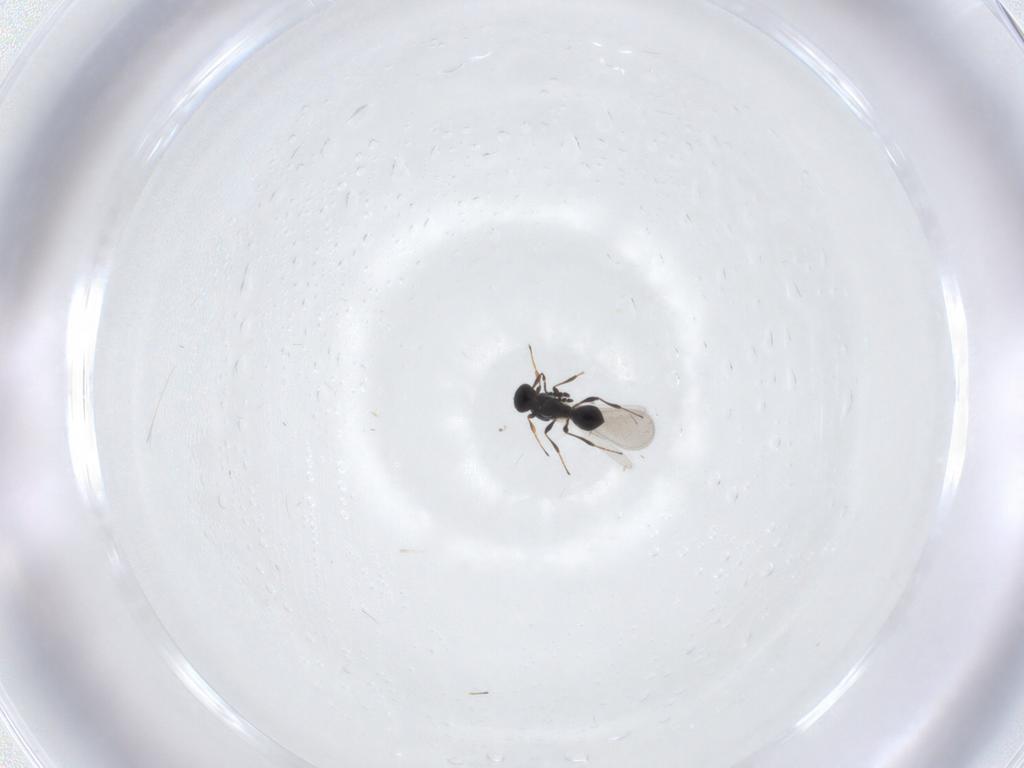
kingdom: Animalia
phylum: Arthropoda
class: Insecta
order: Hymenoptera
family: Platygastridae
